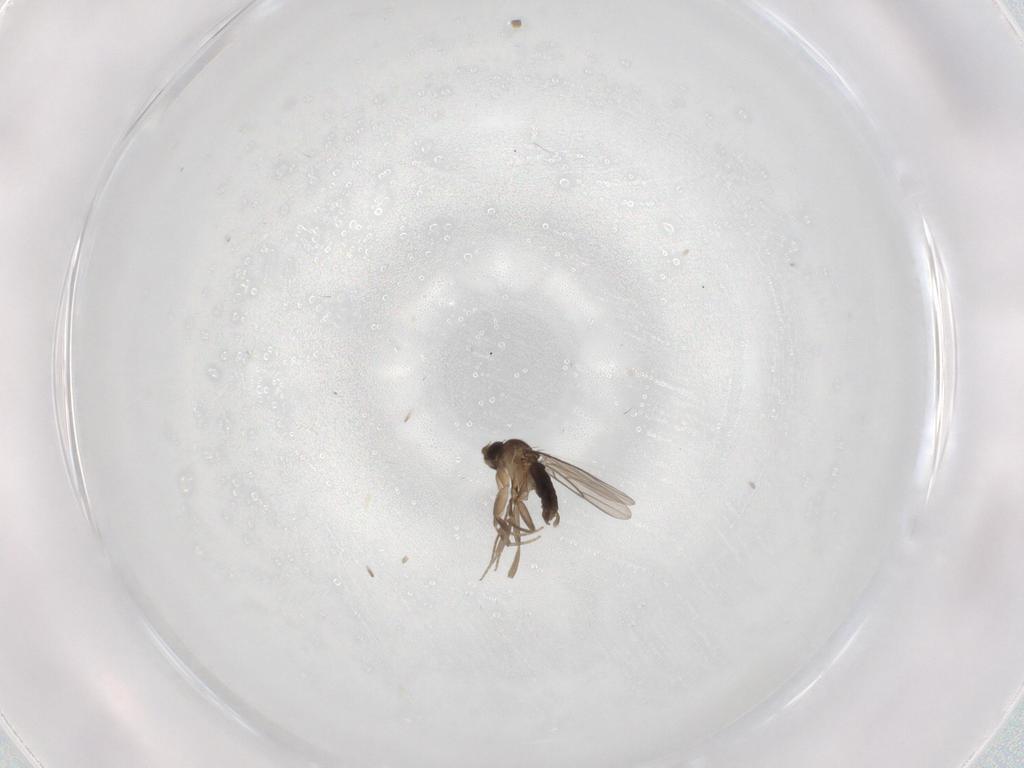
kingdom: Animalia
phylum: Arthropoda
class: Insecta
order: Diptera
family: Phoridae
